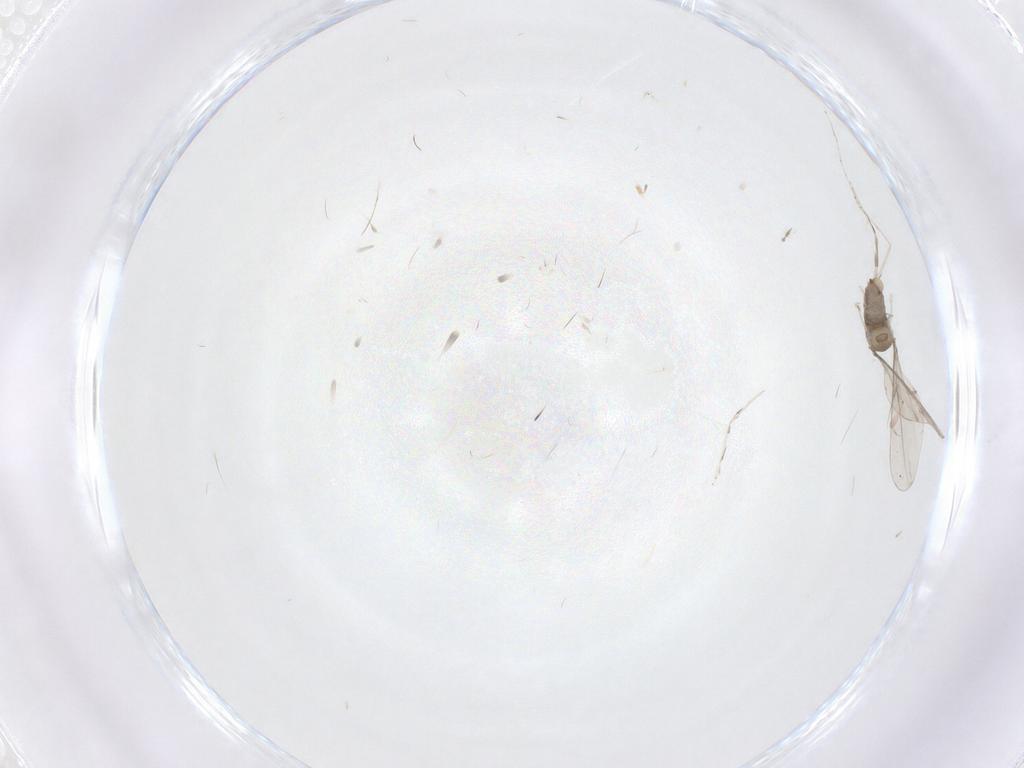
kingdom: Animalia
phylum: Arthropoda
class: Insecta
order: Diptera
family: Cecidomyiidae
